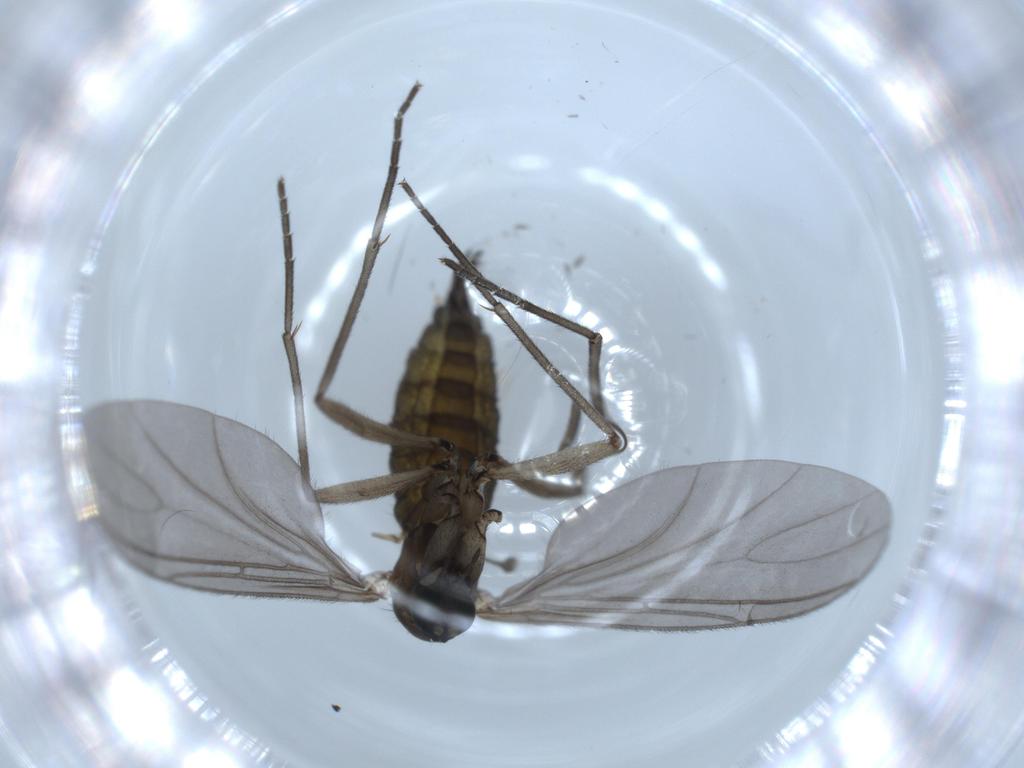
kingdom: Animalia
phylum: Arthropoda
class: Insecta
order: Diptera
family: Sciaridae
